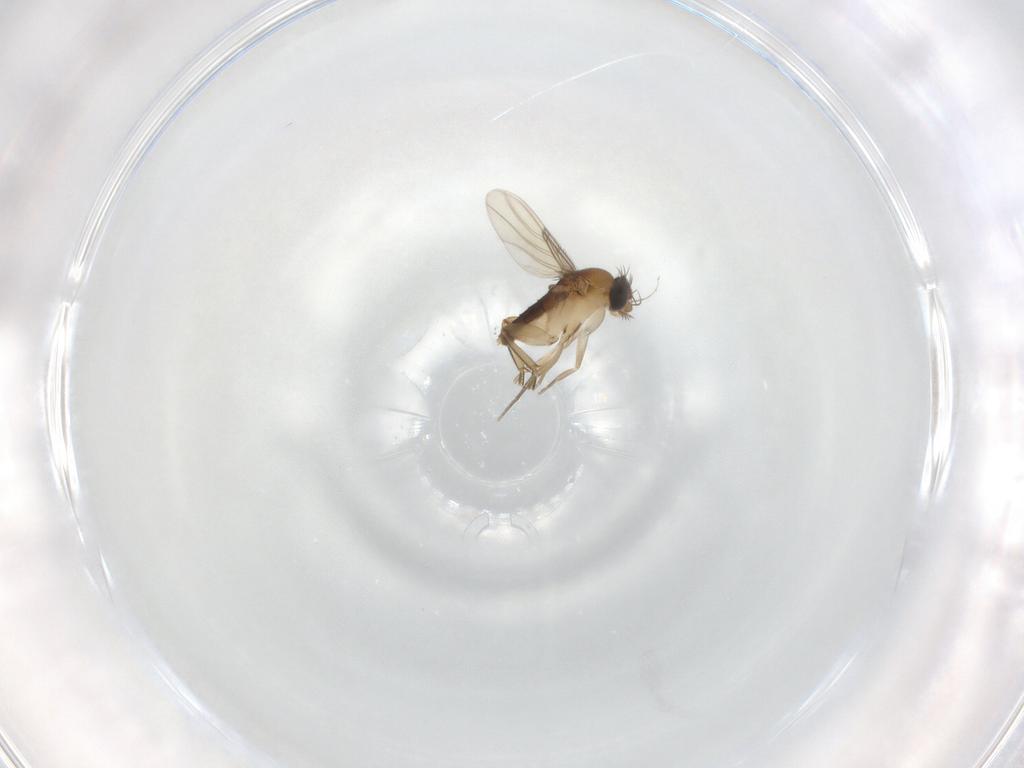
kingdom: Animalia
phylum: Arthropoda
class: Insecta
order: Diptera
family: Phoridae
